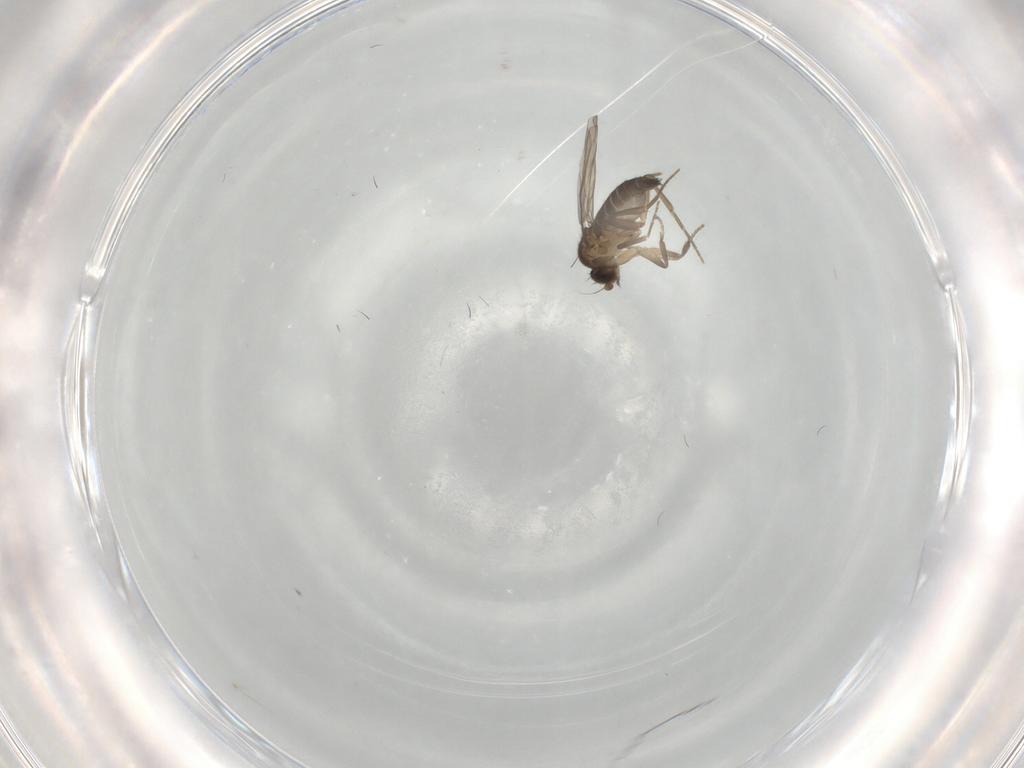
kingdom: Animalia
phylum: Arthropoda
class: Insecta
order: Diptera
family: Phoridae
